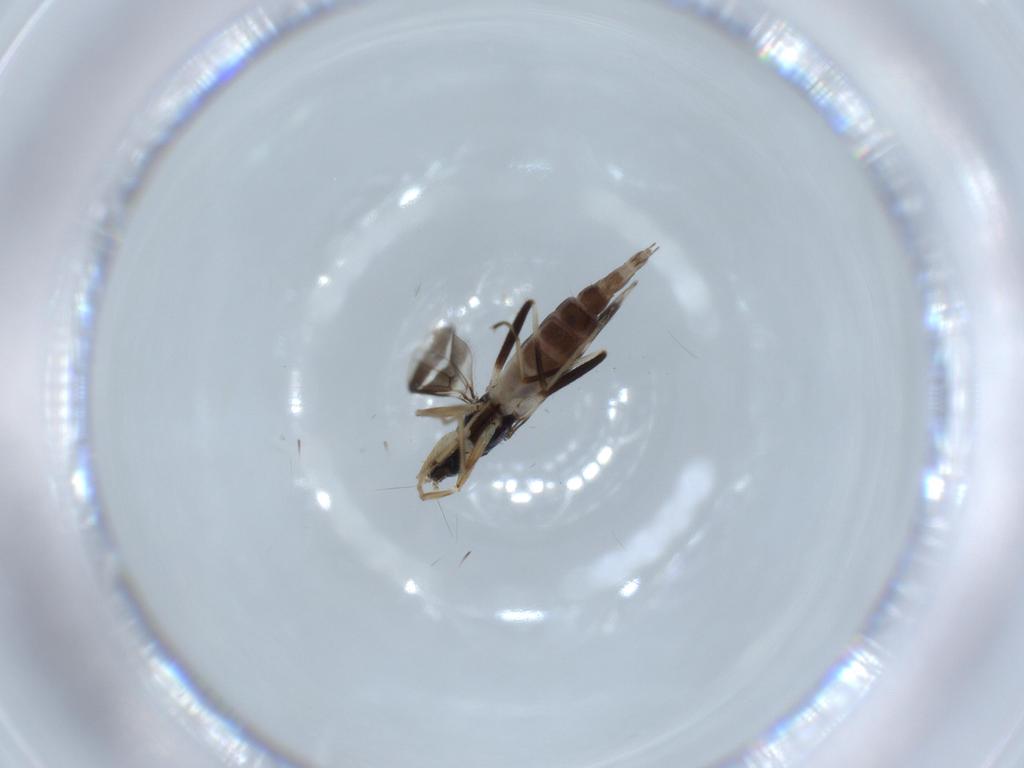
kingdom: Animalia
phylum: Arthropoda
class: Insecta
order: Diptera
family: Hybotidae
